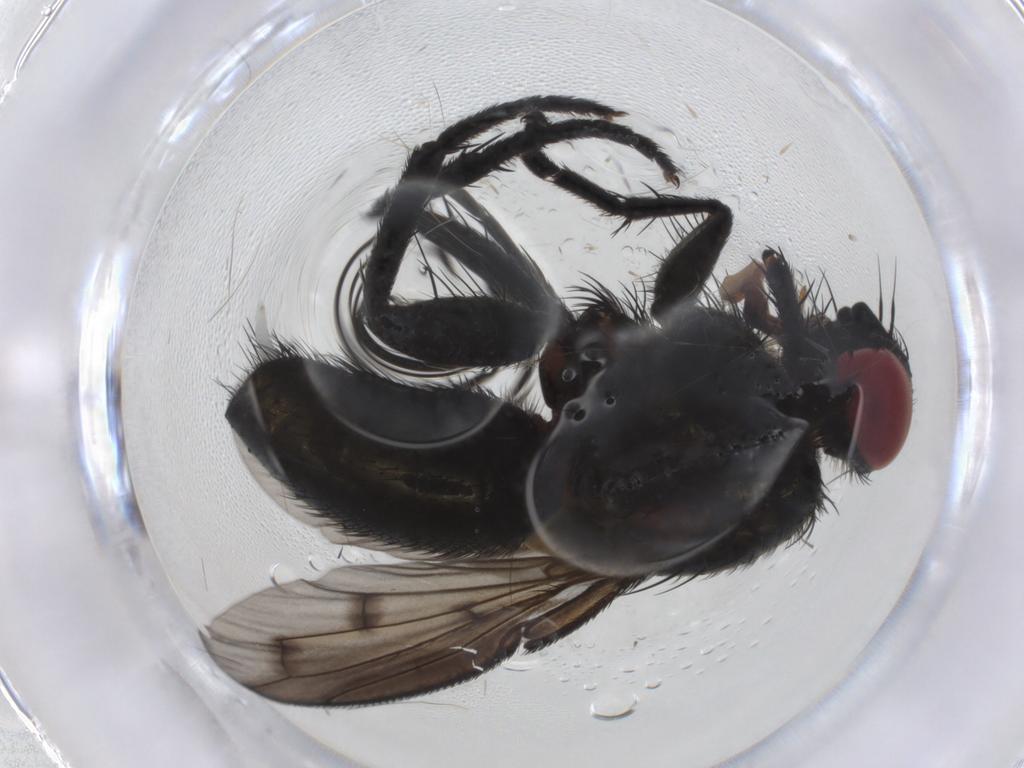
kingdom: Animalia
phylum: Arthropoda
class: Insecta
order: Diptera
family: Tachinidae
